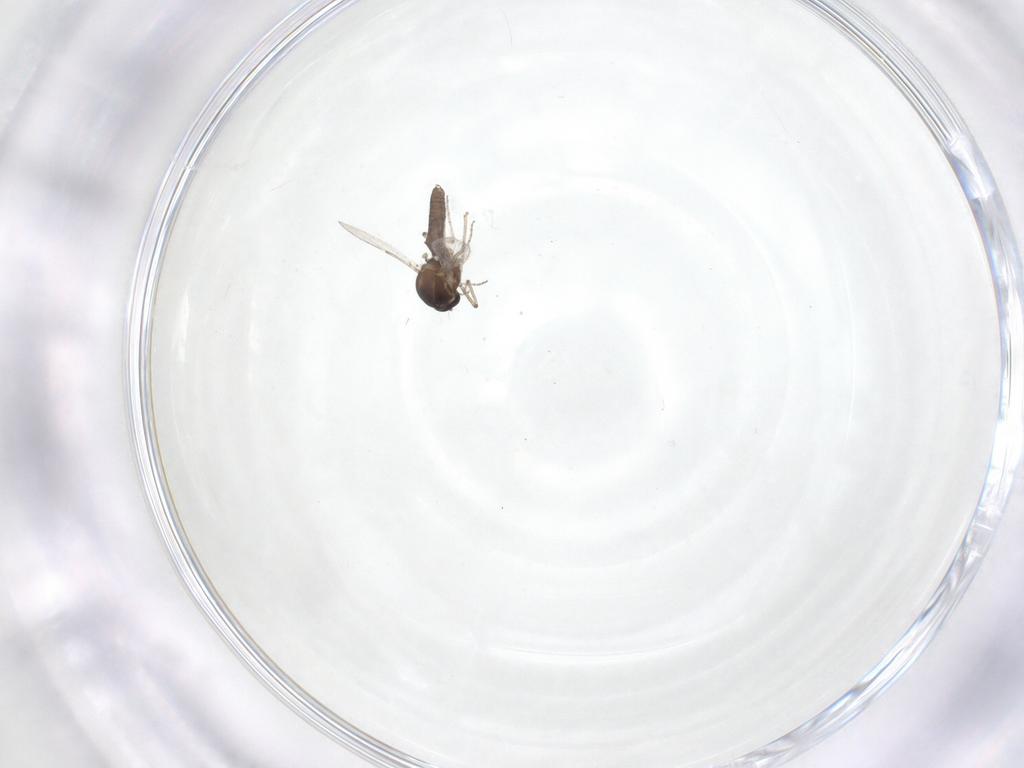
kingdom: Animalia
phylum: Arthropoda
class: Insecta
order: Diptera
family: Ceratopogonidae
